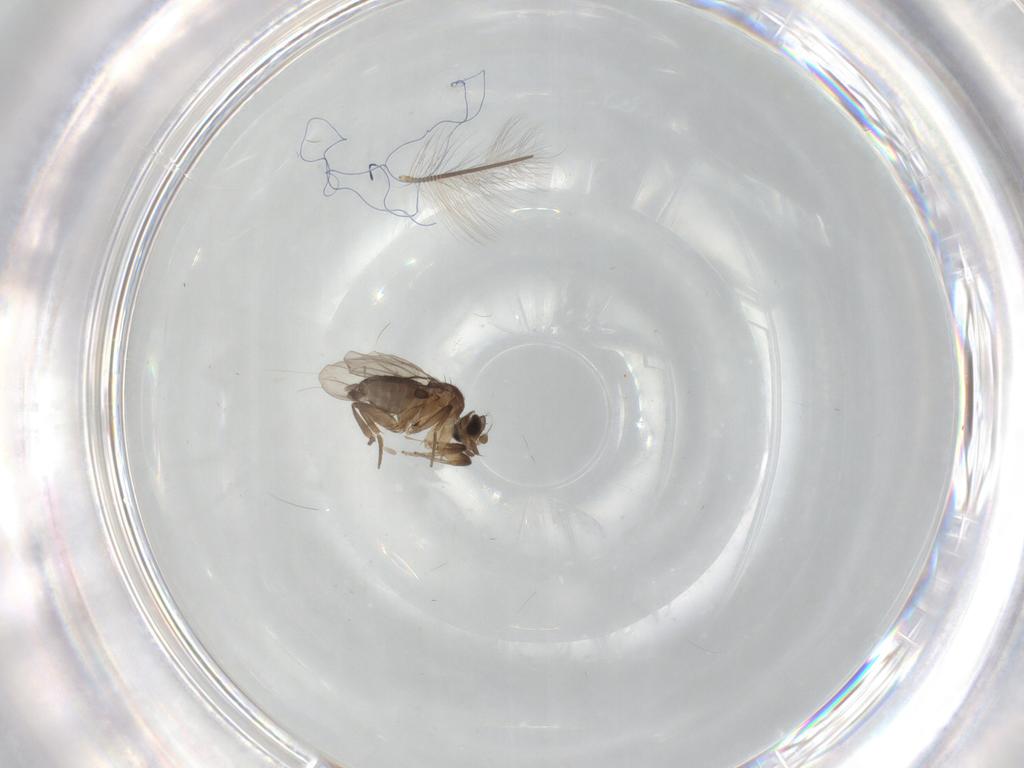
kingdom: Animalia
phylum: Arthropoda
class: Insecta
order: Diptera
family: Chironomidae
